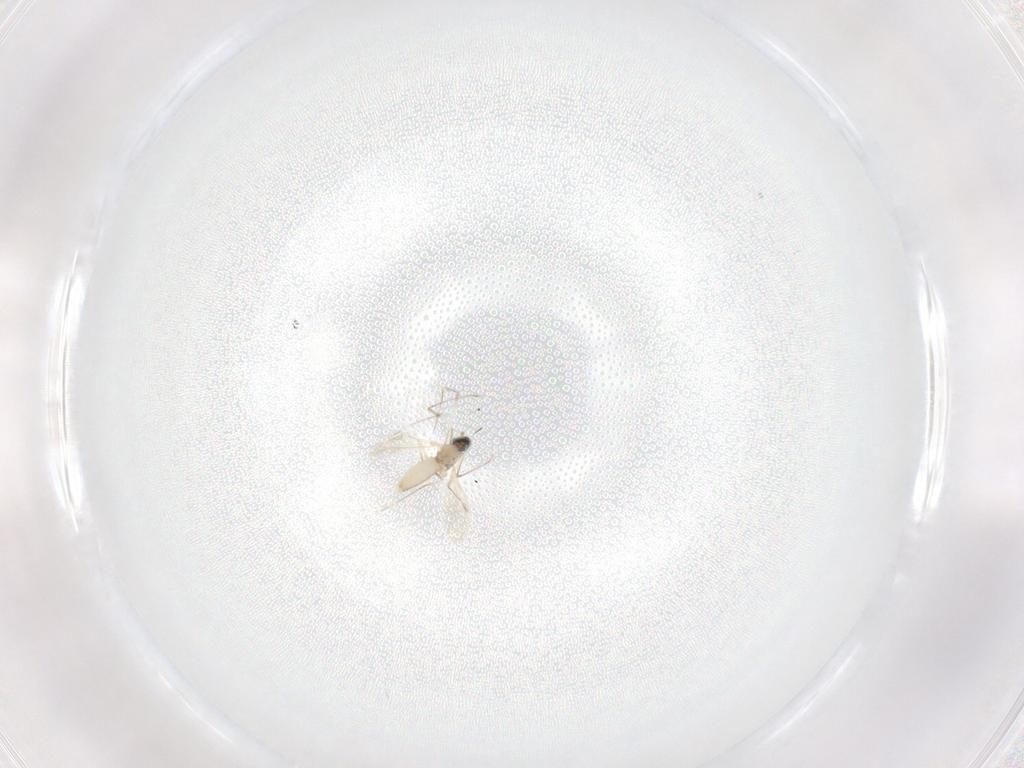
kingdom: Animalia
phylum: Arthropoda
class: Insecta
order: Diptera
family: Cecidomyiidae
